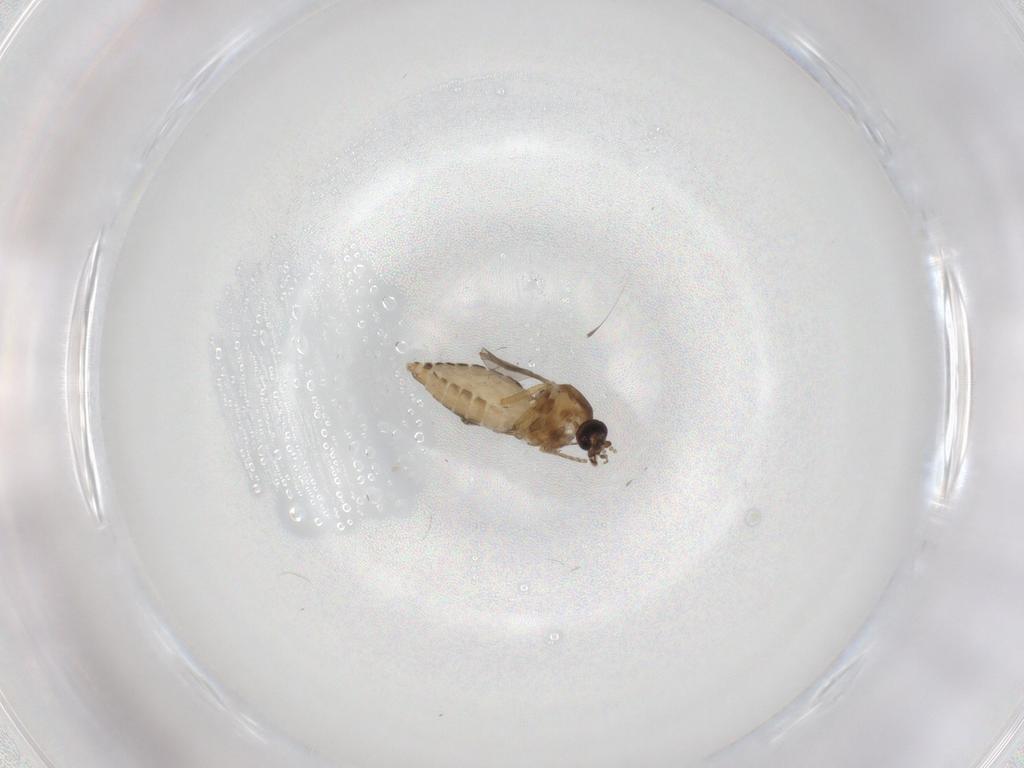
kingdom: Animalia
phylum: Arthropoda
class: Insecta
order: Diptera
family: Ceratopogonidae
